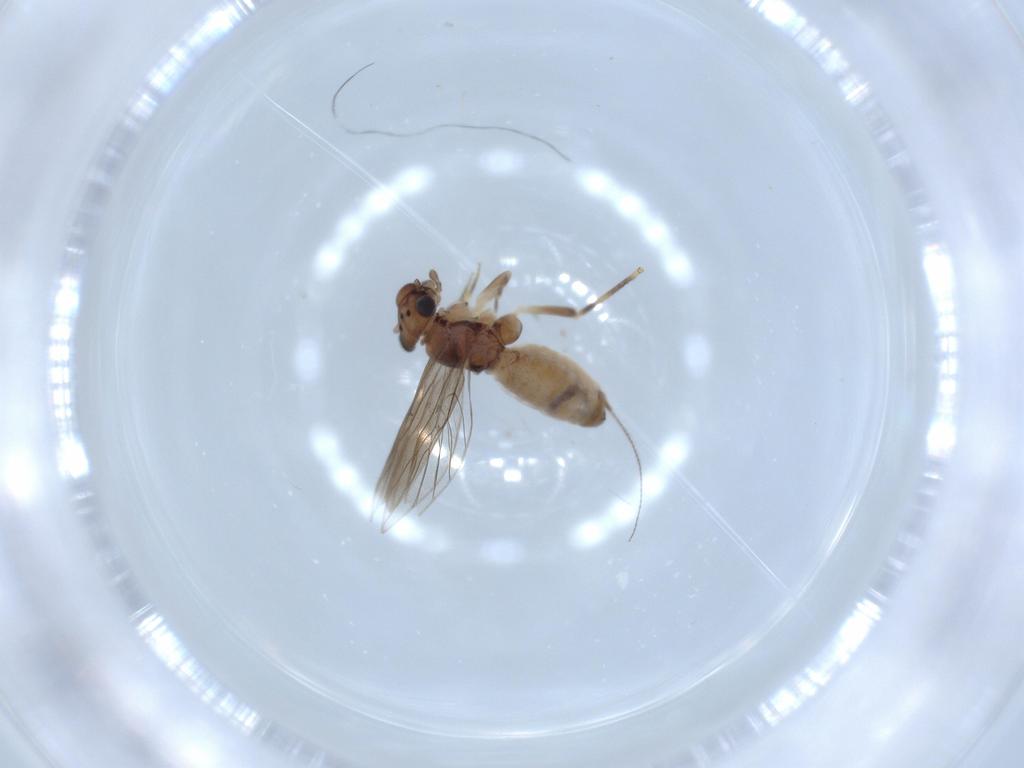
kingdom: Animalia
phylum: Arthropoda
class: Insecta
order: Psocodea
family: Lepidopsocidae
